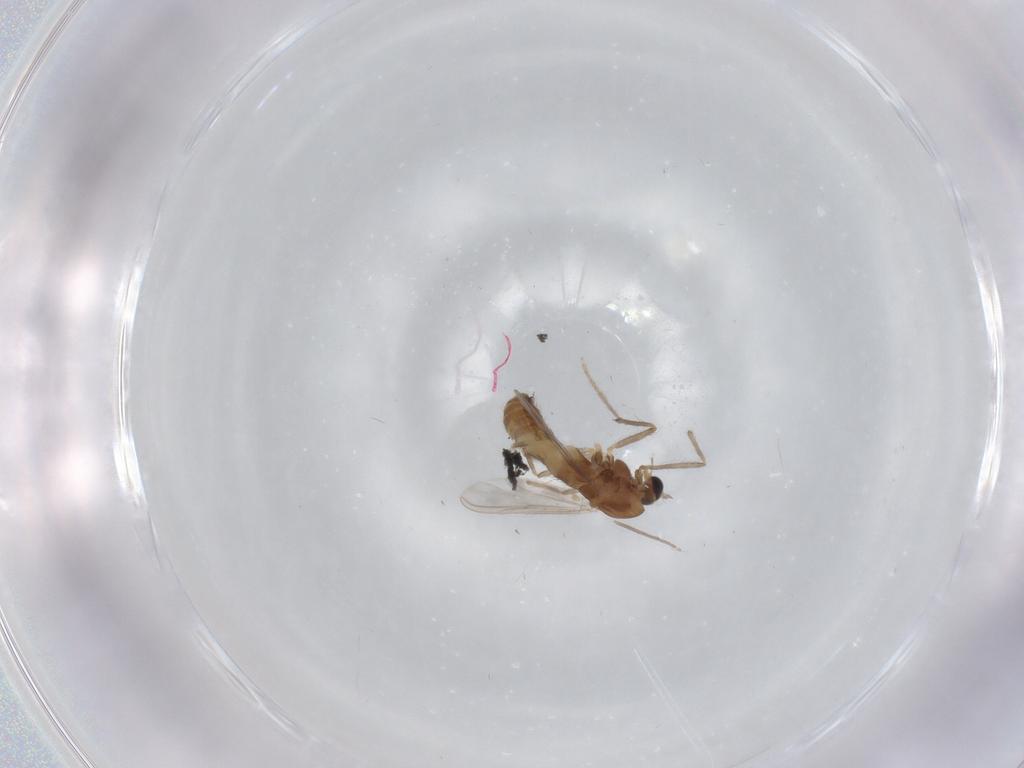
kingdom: Animalia
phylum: Arthropoda
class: Insecta
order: Diptera
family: Chironomidae
